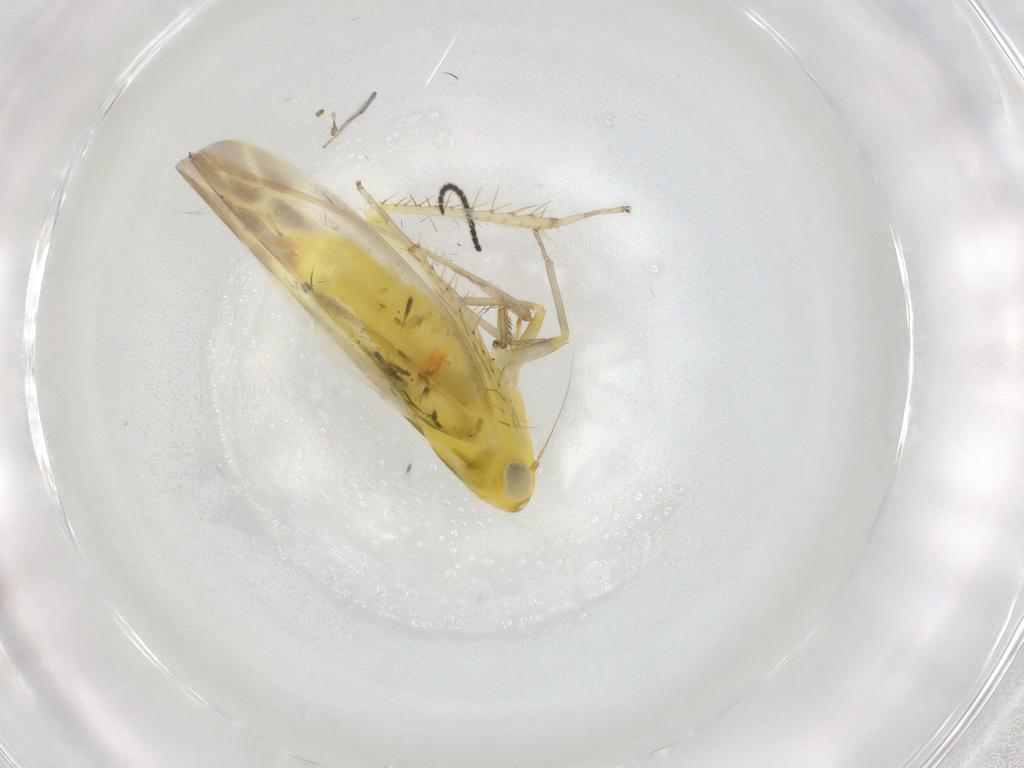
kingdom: Animalia
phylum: Arthropoda
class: Insecta
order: Hemiptera
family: Cicadellidae
